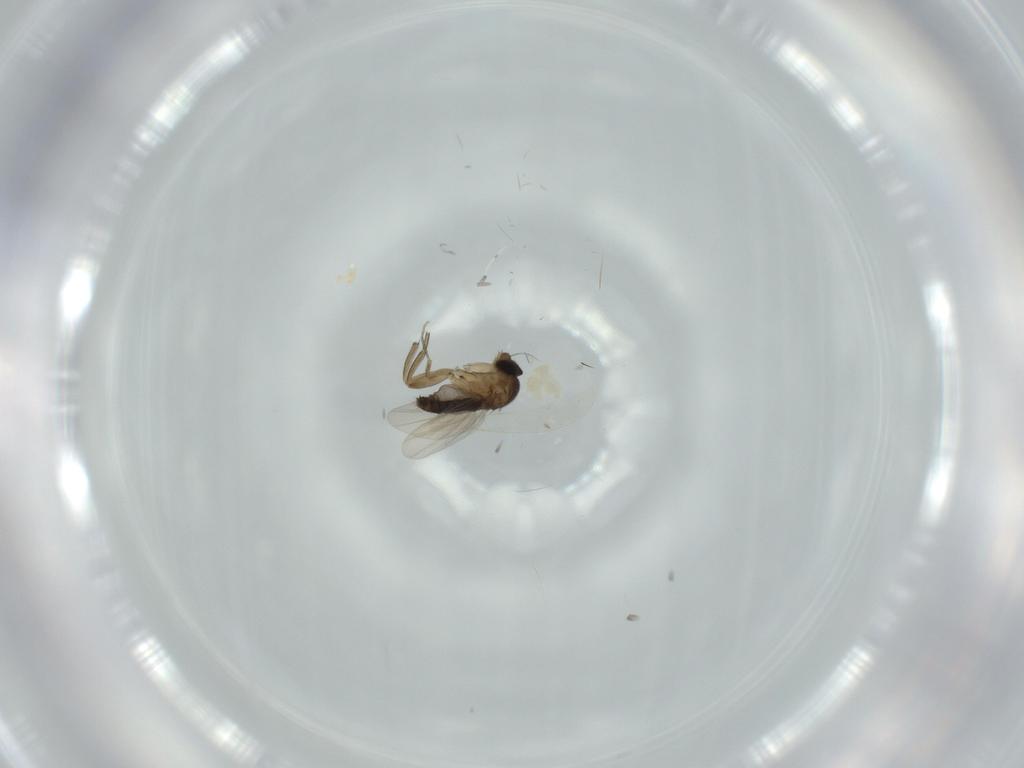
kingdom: Animalia
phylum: Arthropoda
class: Insecta
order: Diptera
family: Phoridae
